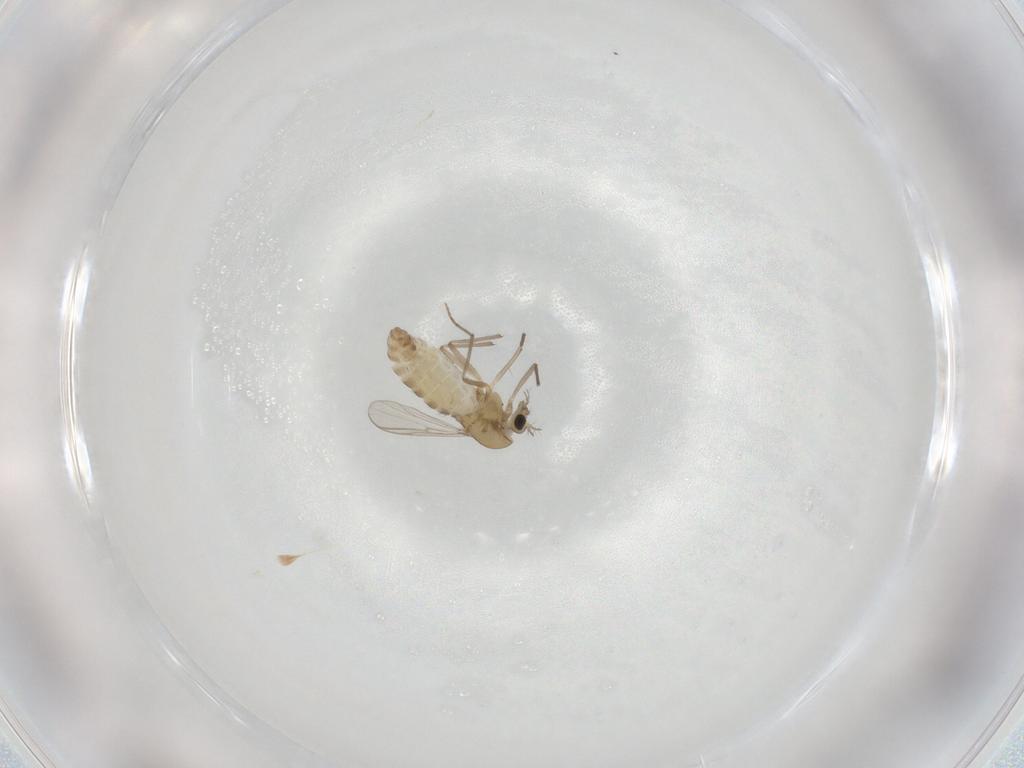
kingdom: Animalia
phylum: Arthropoda
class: Insecta
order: Diptera
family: Chironomidae
